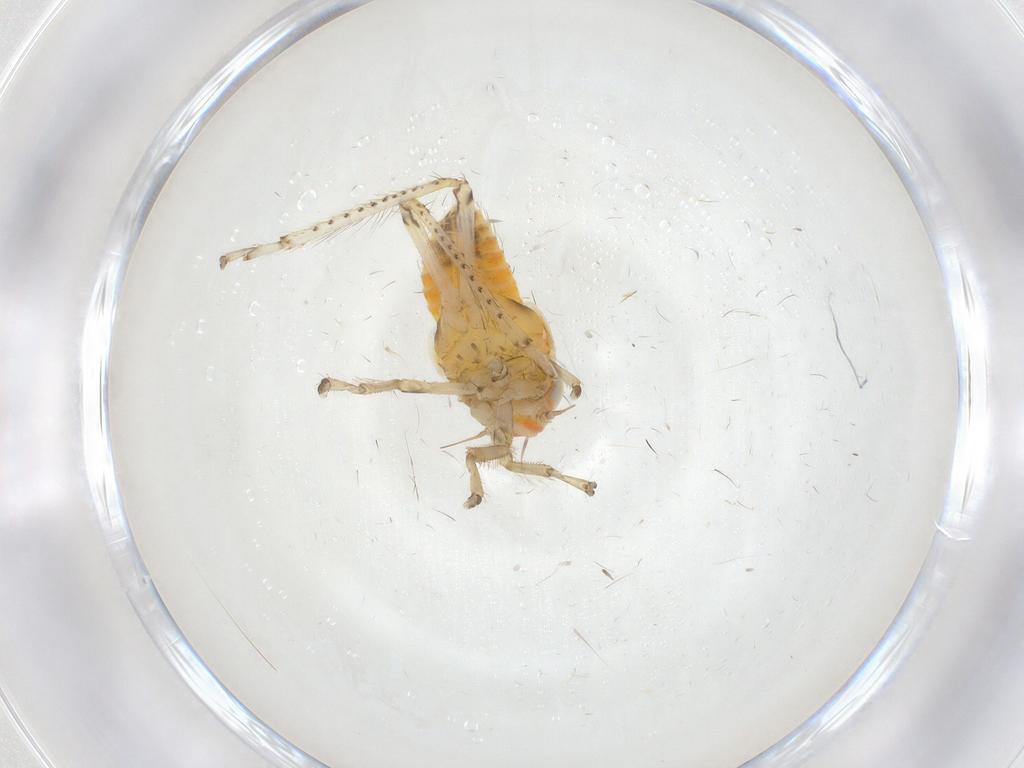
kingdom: Animalia
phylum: Arthropoda
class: Insecta
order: Hemiptera
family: Cicadellidae
